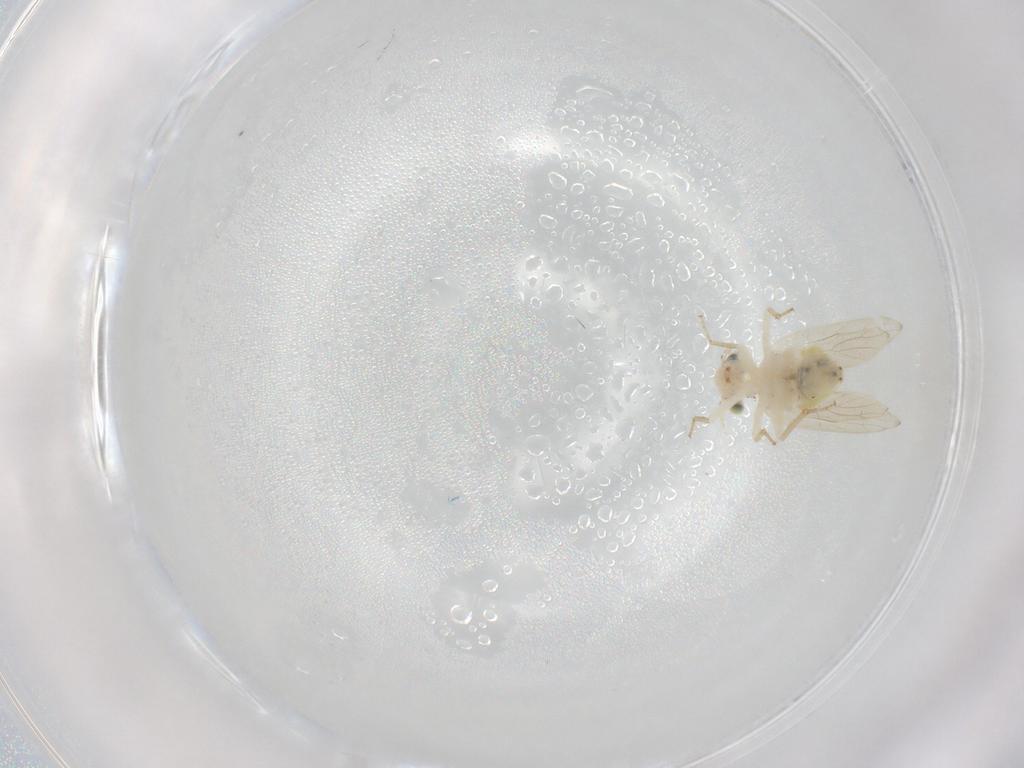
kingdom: Animalia
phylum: Arthropoda
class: Insecta
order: Psocodea
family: Lepidopsocidae
